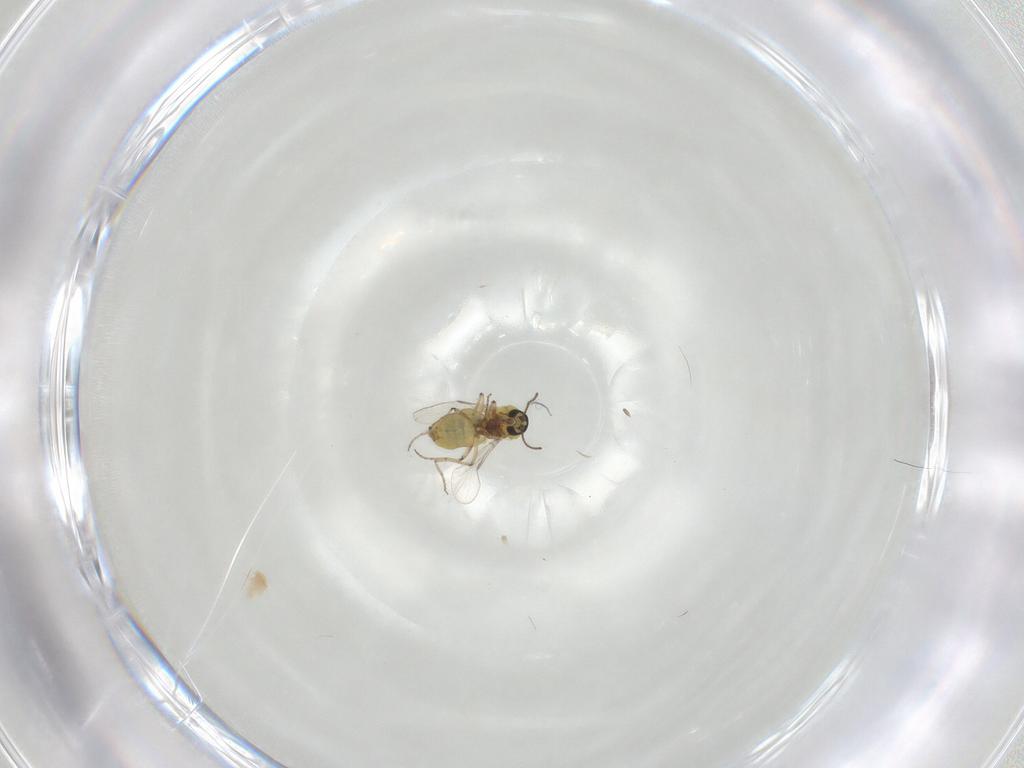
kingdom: Animalia
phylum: Arthropoda
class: Insecta
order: Diptera
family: Ceratopogonidae
